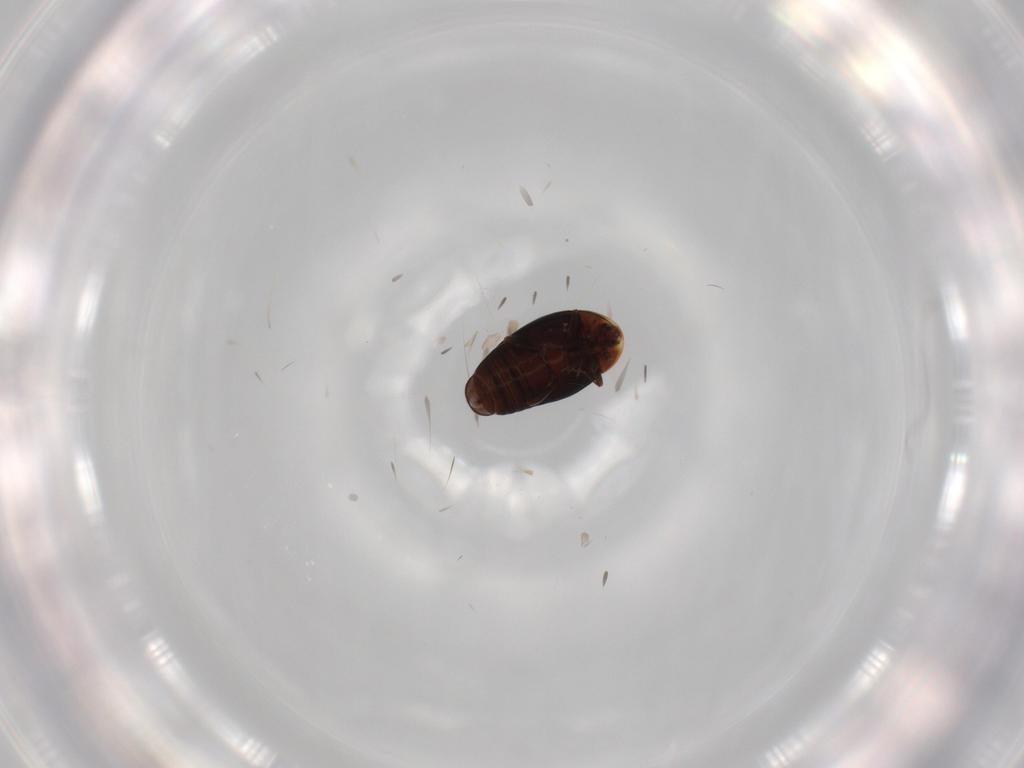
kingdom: Animalia
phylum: Arthropoda
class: Insecta
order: Coleoptera
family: Corylophidae
